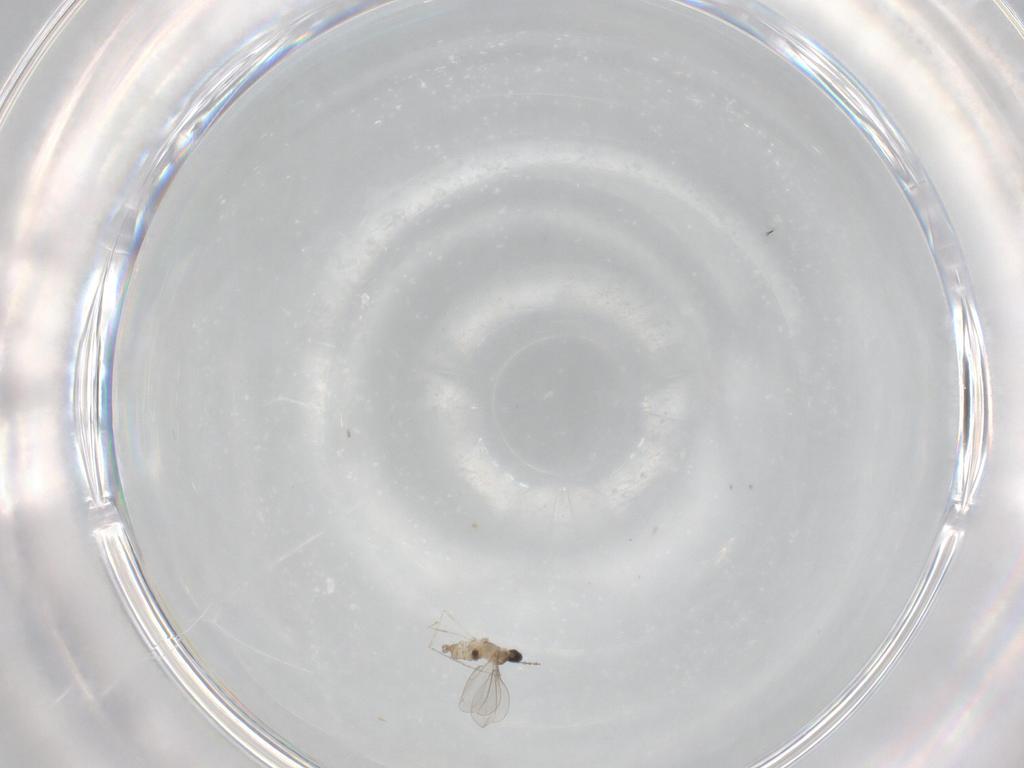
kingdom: Animalia
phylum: Arthropoda
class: Insecta
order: Diptera
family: Cecidomyiidae
